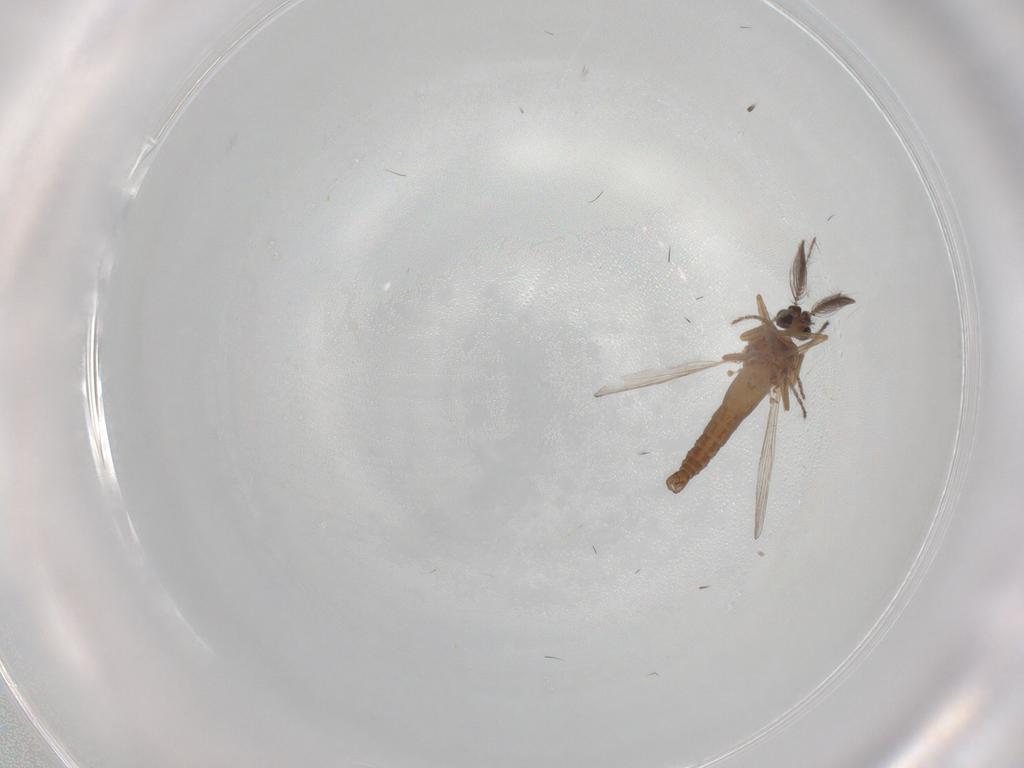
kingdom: Animalia
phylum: Arthropoda
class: Insecta
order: Diptera
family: Ceratopogonidae
